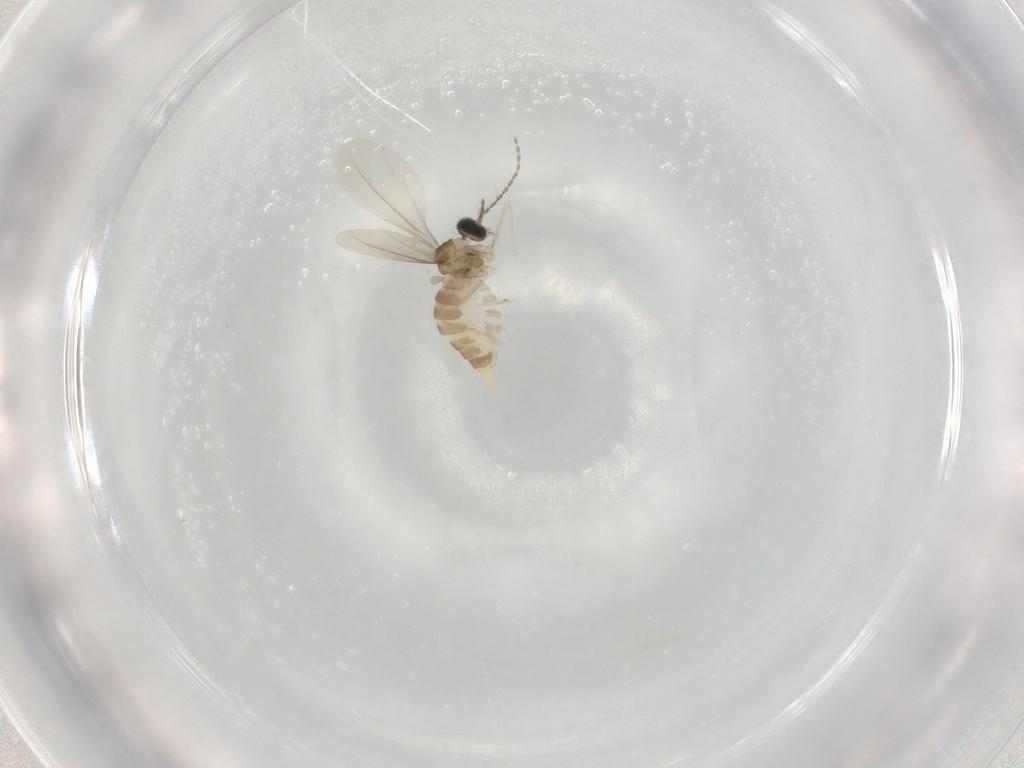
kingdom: Animalia
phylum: Arthropoda
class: Insecta
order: Diptera
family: Cecidomyiidae
